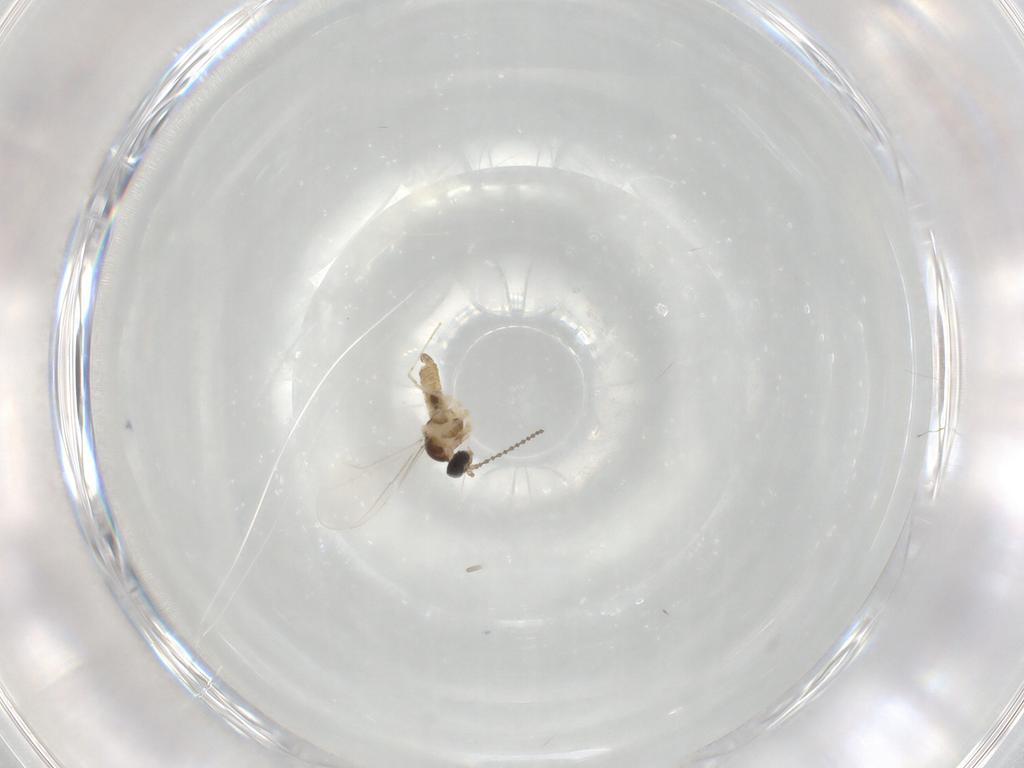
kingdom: Animalia
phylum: Arthropoda
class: Insecta
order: Diptera
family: Cecidomyiidae
